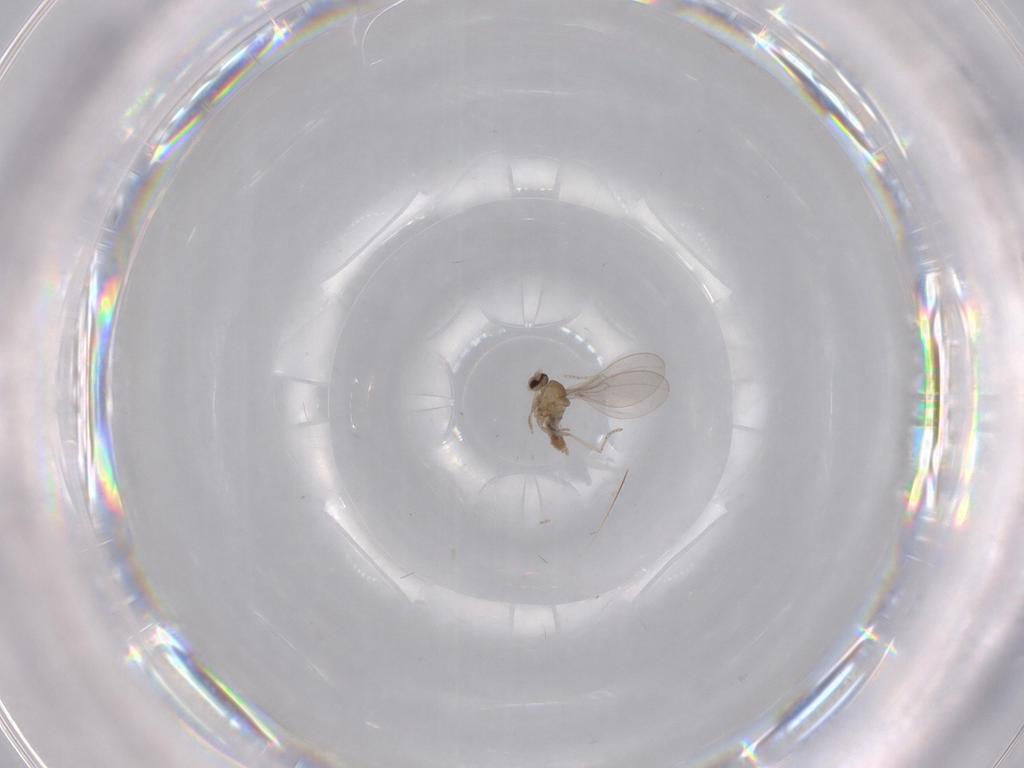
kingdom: Animalia
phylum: Arthropoda
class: Insecta
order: Diptera
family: Cecidomyiidae
